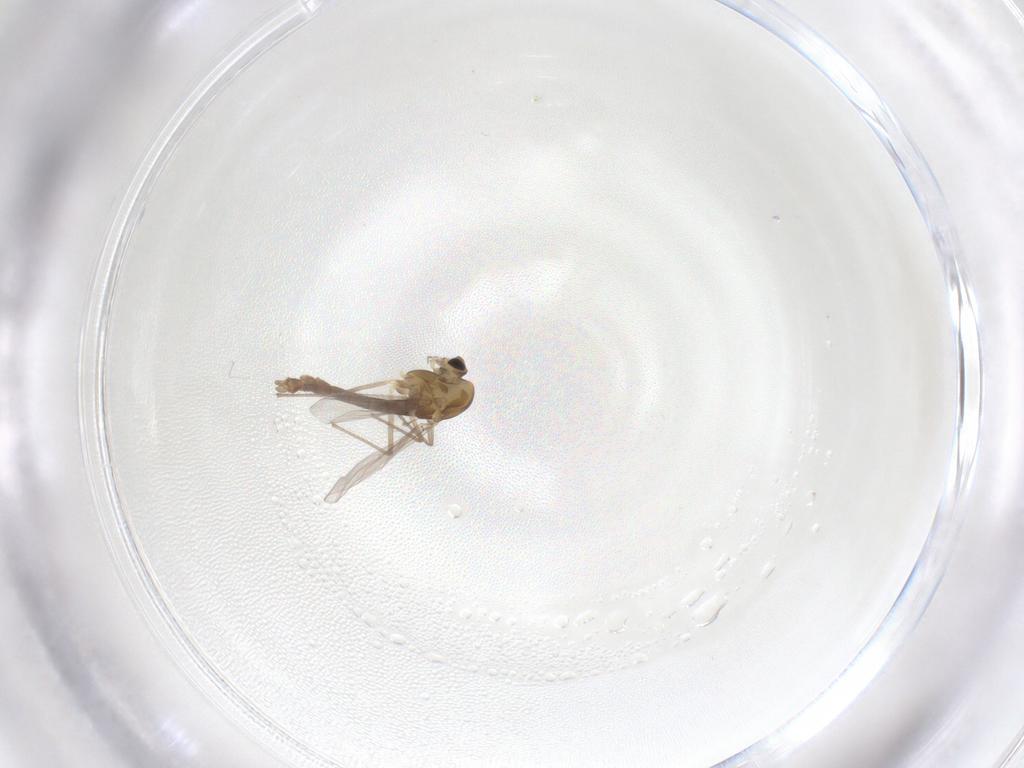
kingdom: Animalia
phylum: Arthropoda
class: Insecta
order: Diptera
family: Chironomidae
